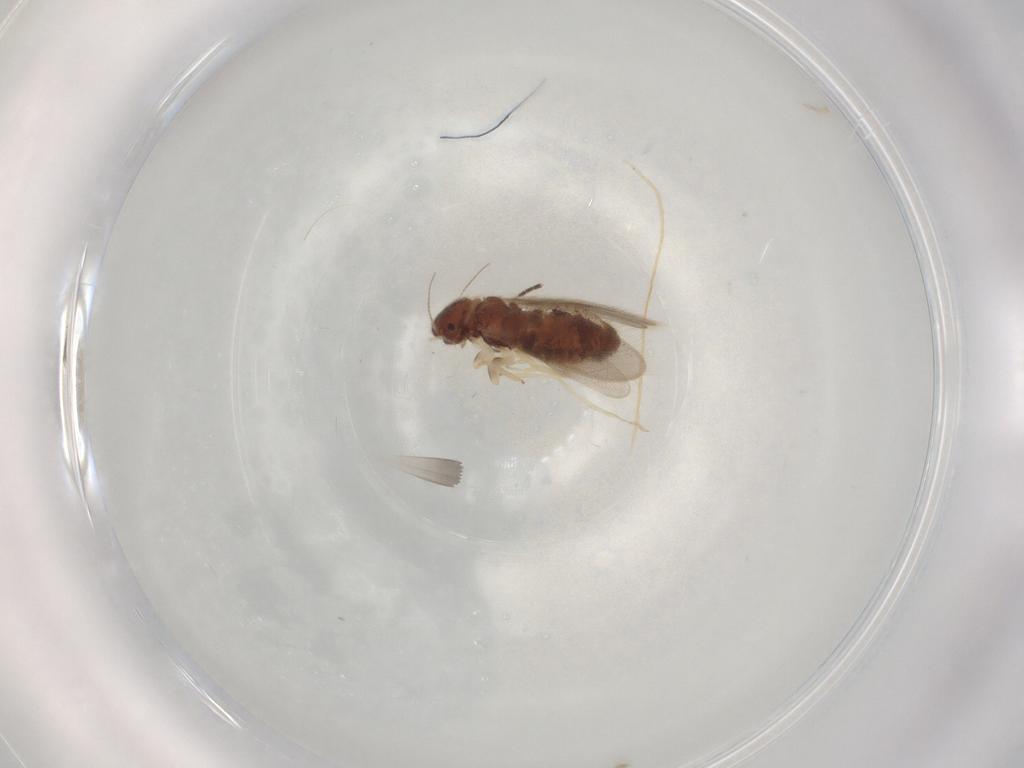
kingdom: Animalia
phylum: Arthropoda
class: Insecta
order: Psocodea
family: Archipsocidae
